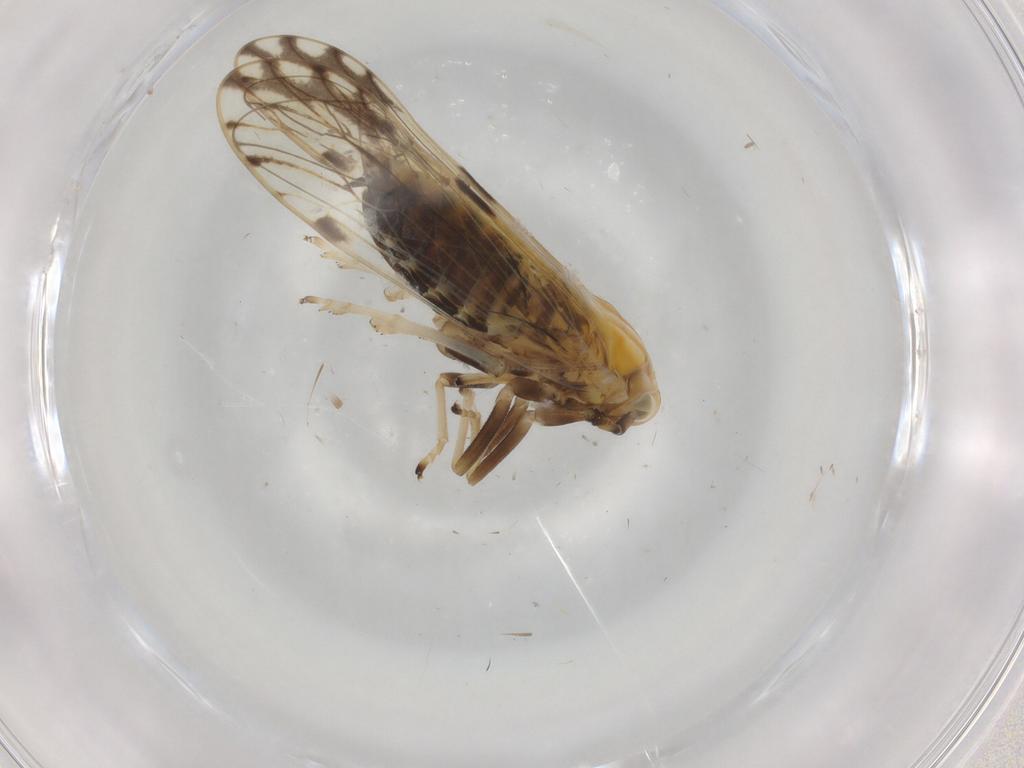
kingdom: Animalia
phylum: Arthropoda
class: Insecta
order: Hemiptera
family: Delphacidae
